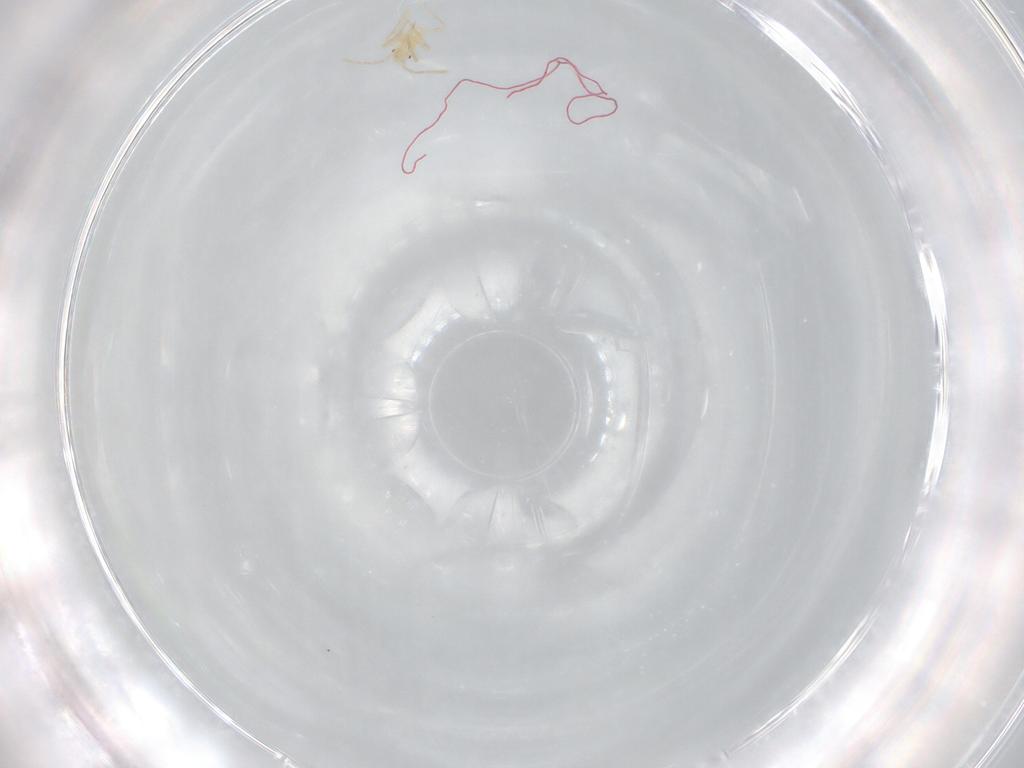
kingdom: Animalia
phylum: Arthropoda
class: Insecta
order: Hemiptera
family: Aphididae
